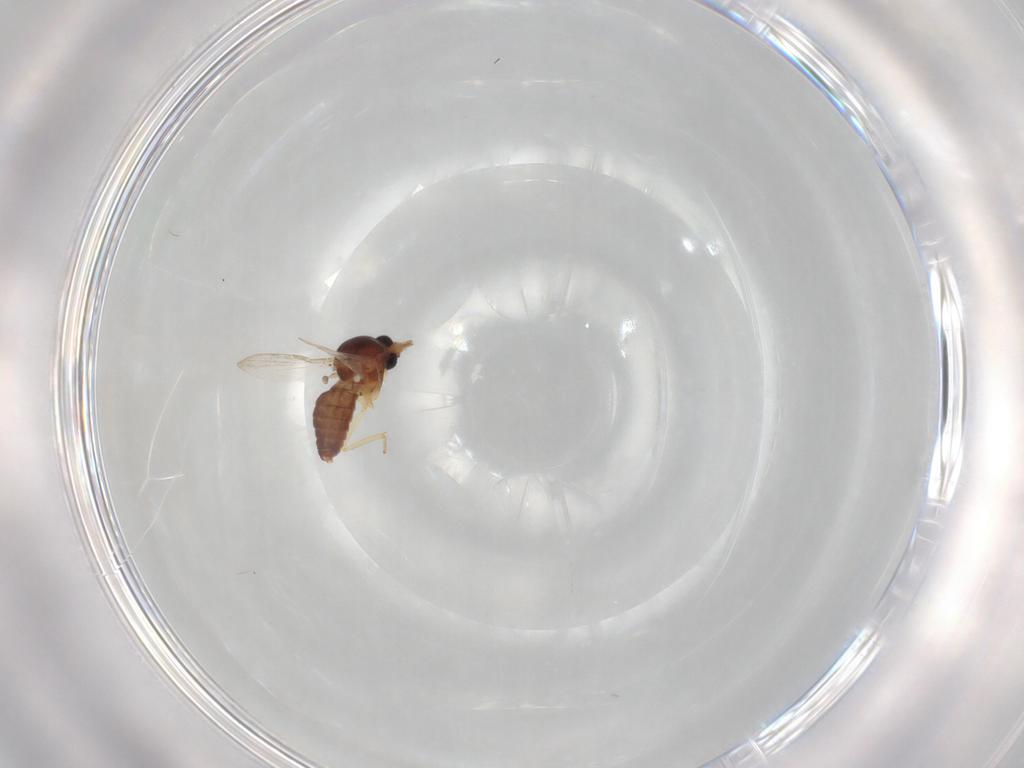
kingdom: Animalia
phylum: Arthropoda
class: Insecta
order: Diptera
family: Ceratopogonidae
